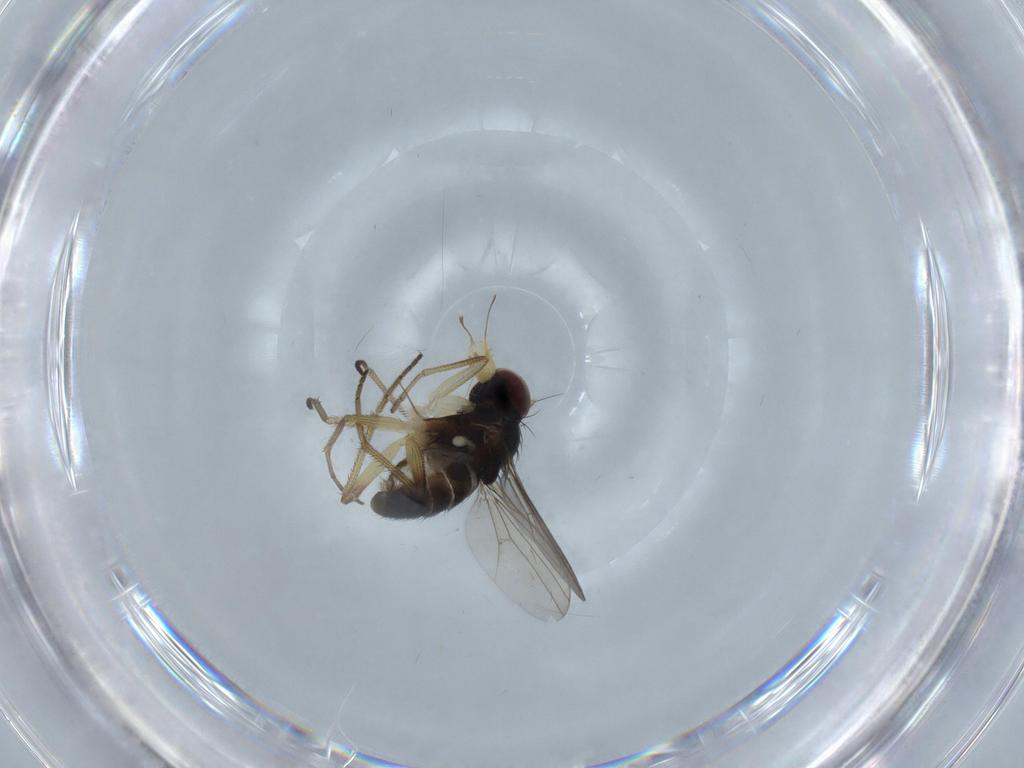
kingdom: Animalia
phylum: Arthropoda
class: Insecta
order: Diptera
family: Dolichopodidae
